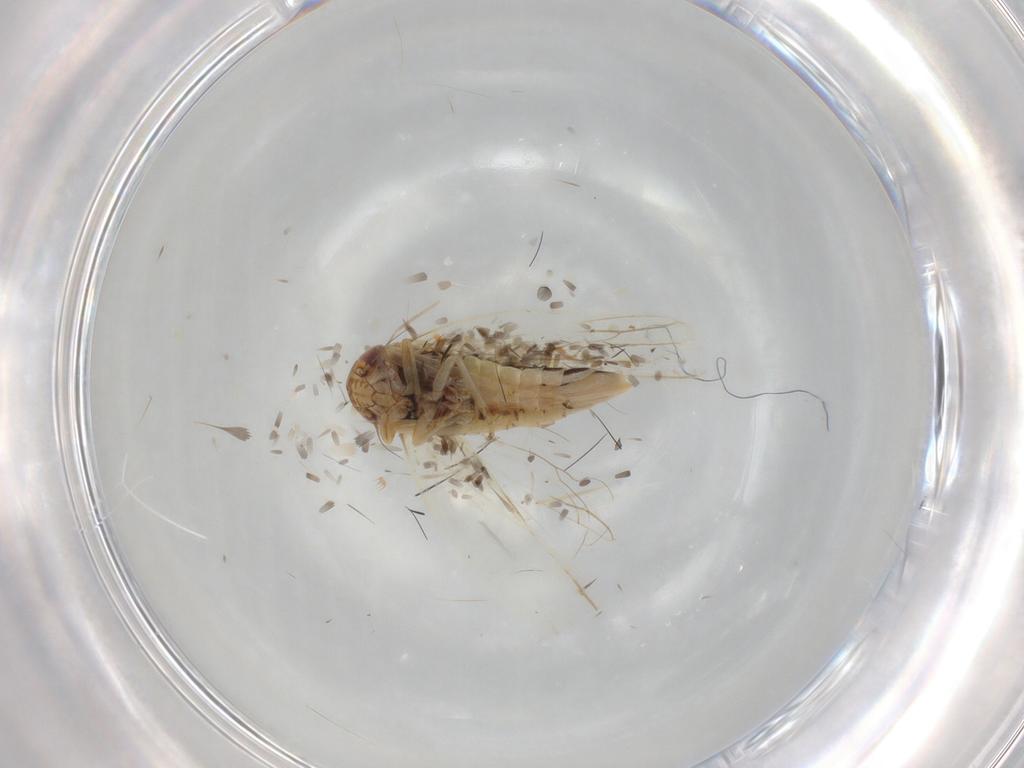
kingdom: Animalia
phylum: Arthropoda
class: Insecta
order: Hemiptera
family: Cicadellidae
